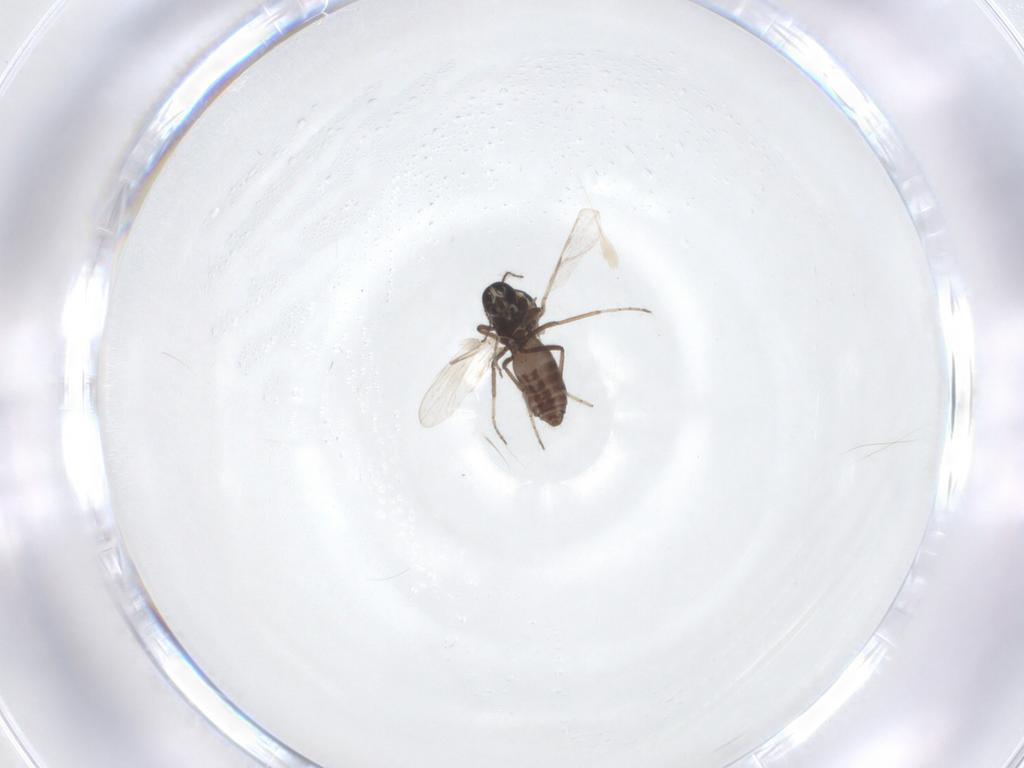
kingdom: Animalia
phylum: Arthropoda
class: Insecta
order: Diptera
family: Ceratopogonidae
